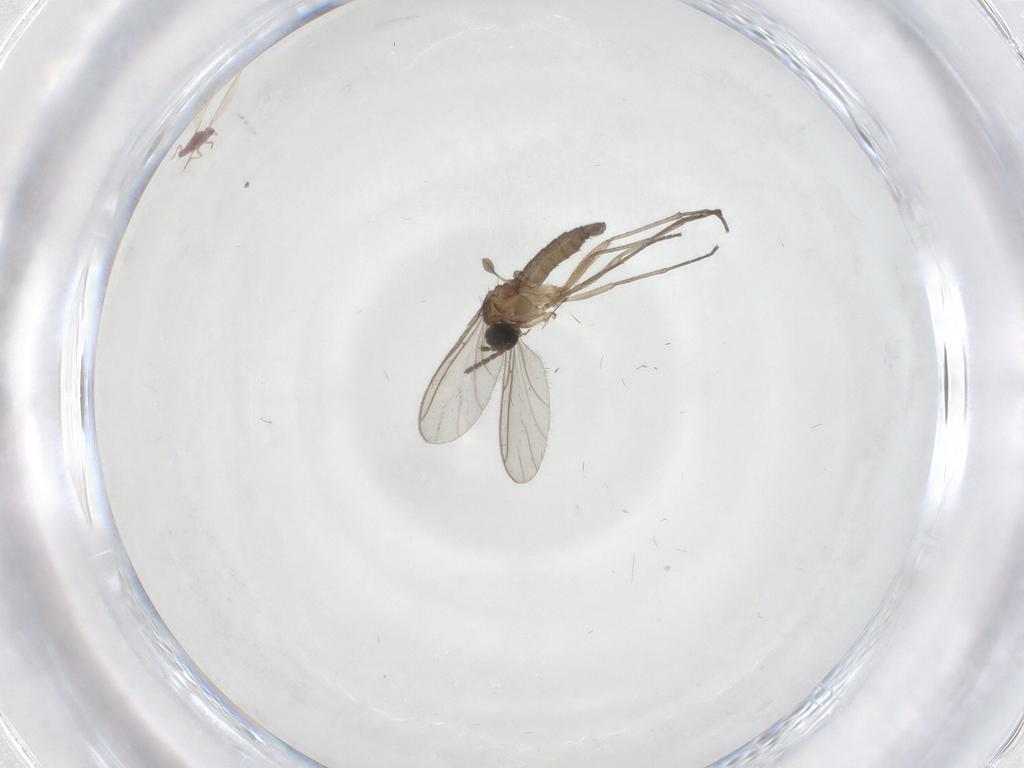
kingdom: Animalia
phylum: Arthropoda
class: Insecta
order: Diptera
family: Sciaridae
